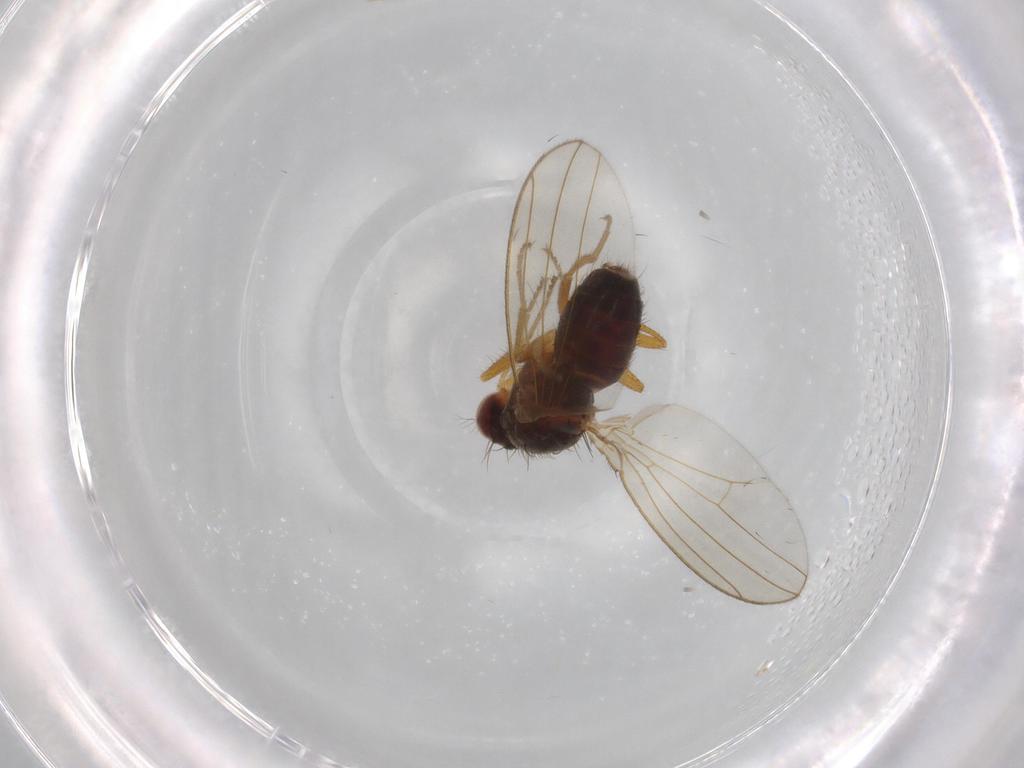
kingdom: Animalia
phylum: Arthropoda
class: Insecta
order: Diptera
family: Drosophilidae
